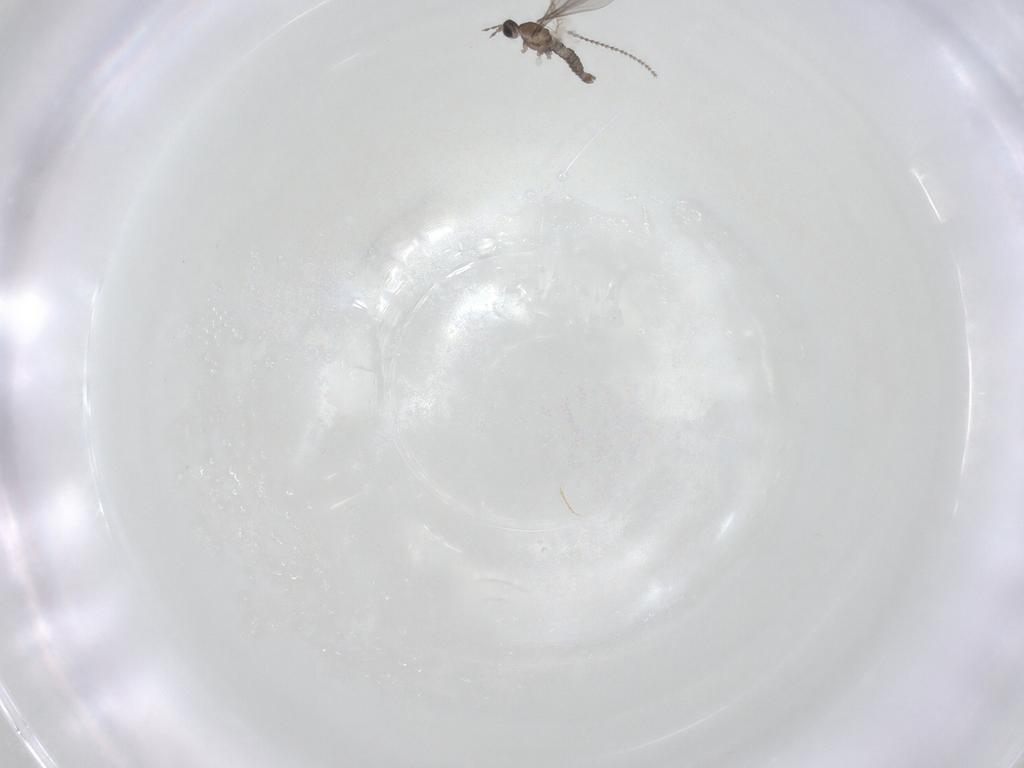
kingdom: Animalia
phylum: Arthropoda
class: Insecta
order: Diptera
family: Cecidomyiidae
